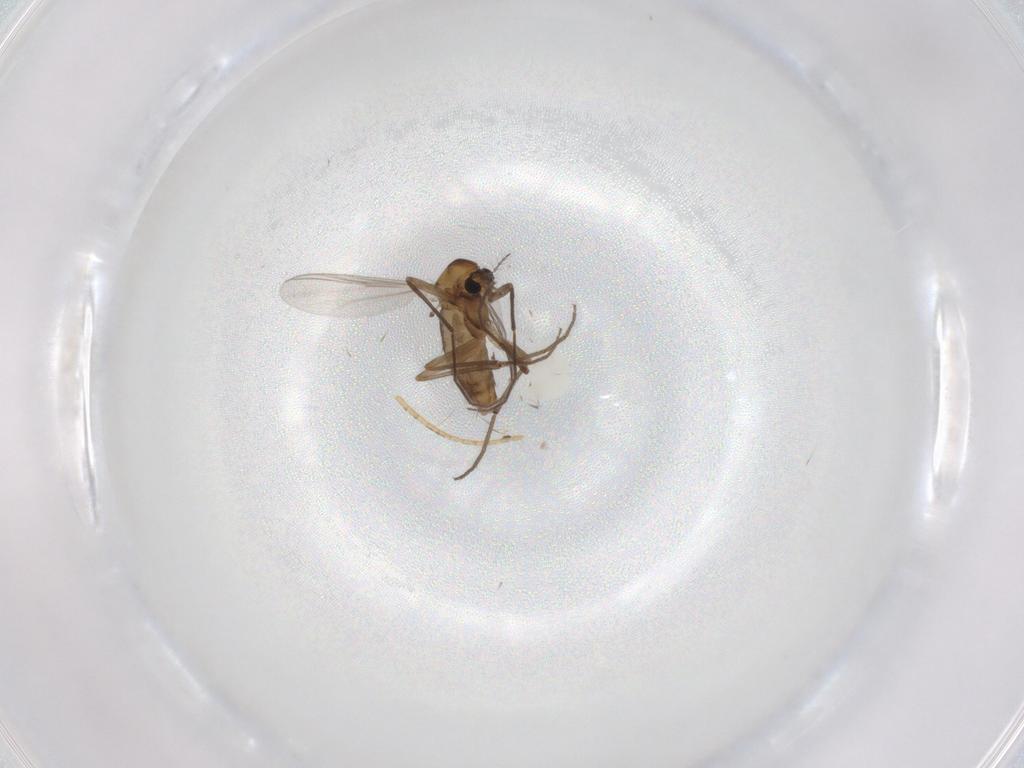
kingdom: Animalia
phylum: Arthropoda
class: Insecta
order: Diptera
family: Chironomidae
